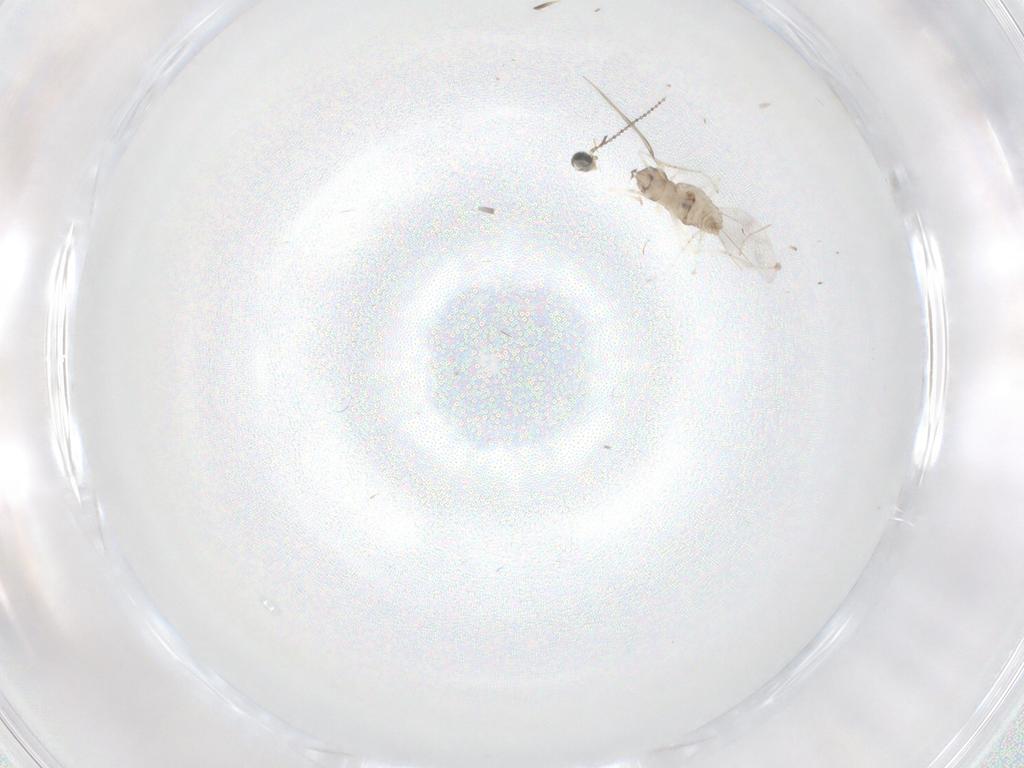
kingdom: Animalia
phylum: Arthropoda
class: Insecta
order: Diptera
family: Cecidomyiidae
